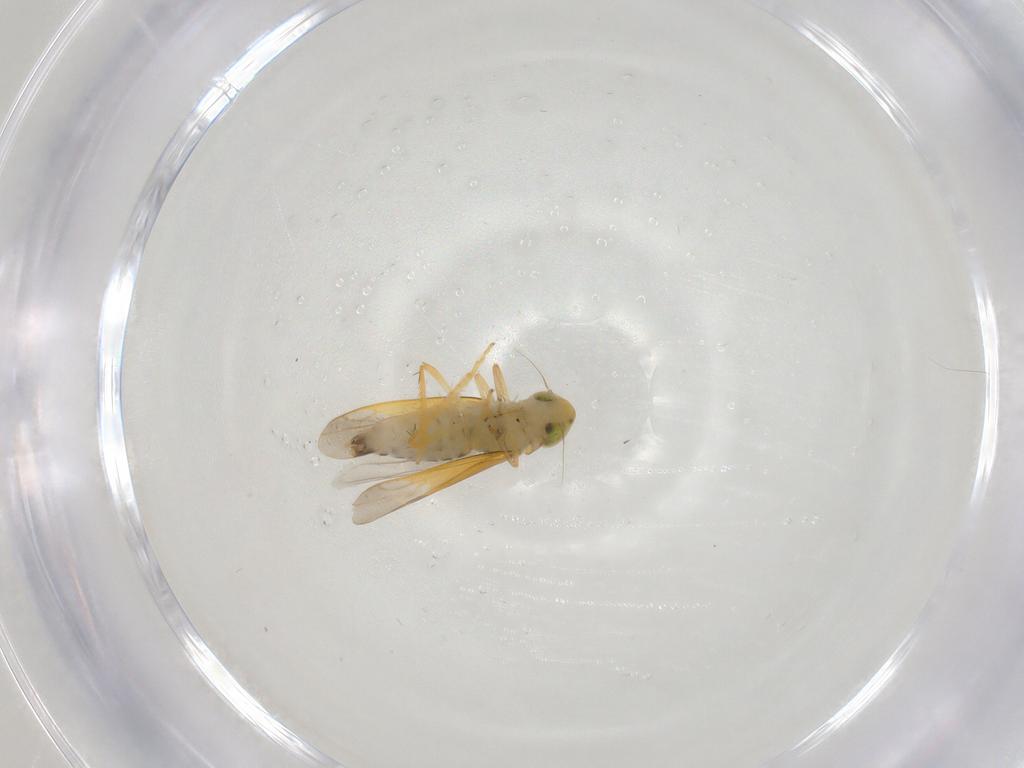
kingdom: Animalia
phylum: Arthropoda
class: Insecta
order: Hemiptera
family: Cicadellidae
